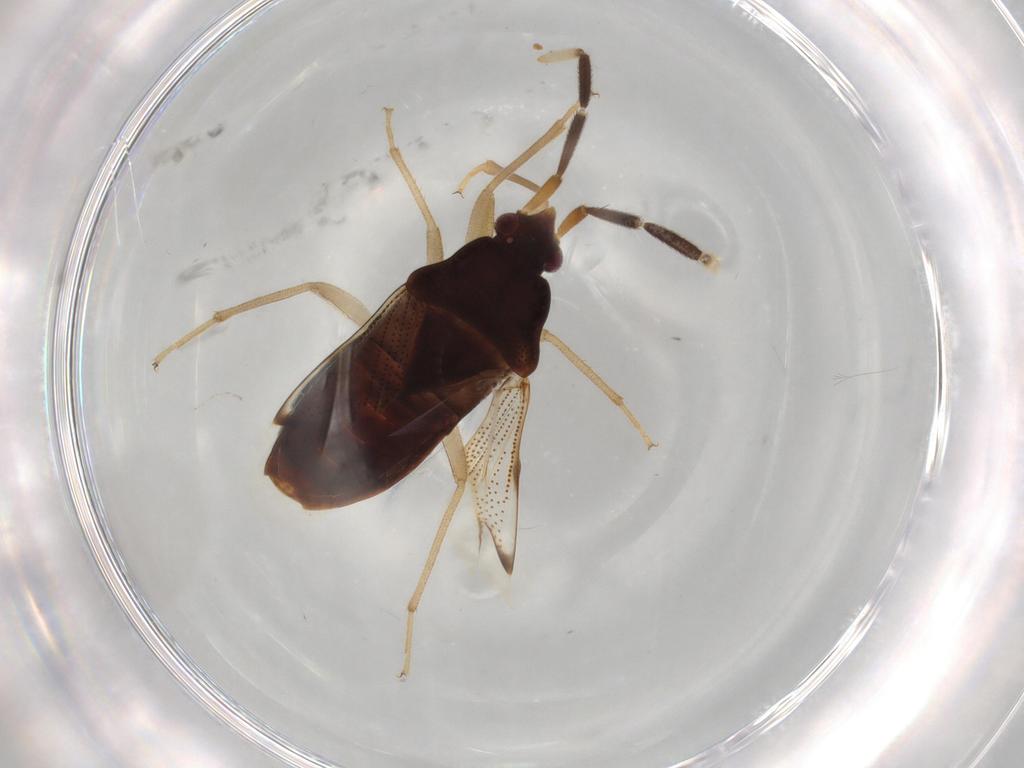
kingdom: Animalia
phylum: Arthropoda
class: Insecta
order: Hemiptera
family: Rhyparochromidae
